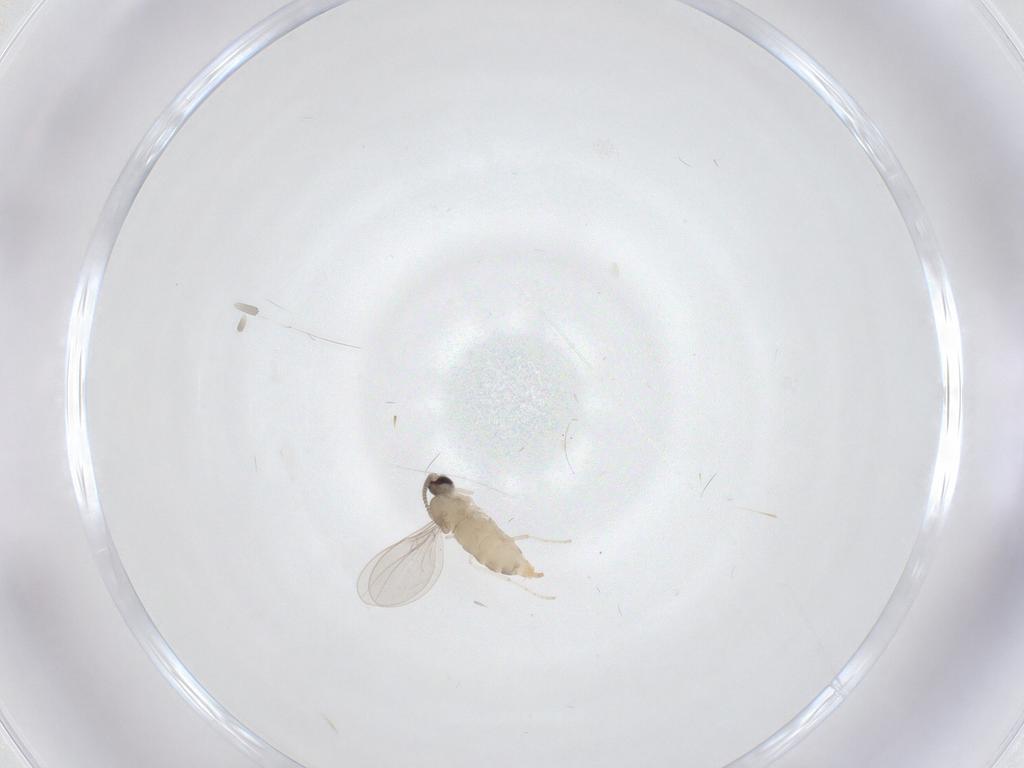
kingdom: Animalia
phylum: Arthropoda
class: Insecta
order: Diptera
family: Cecidomyiidae
